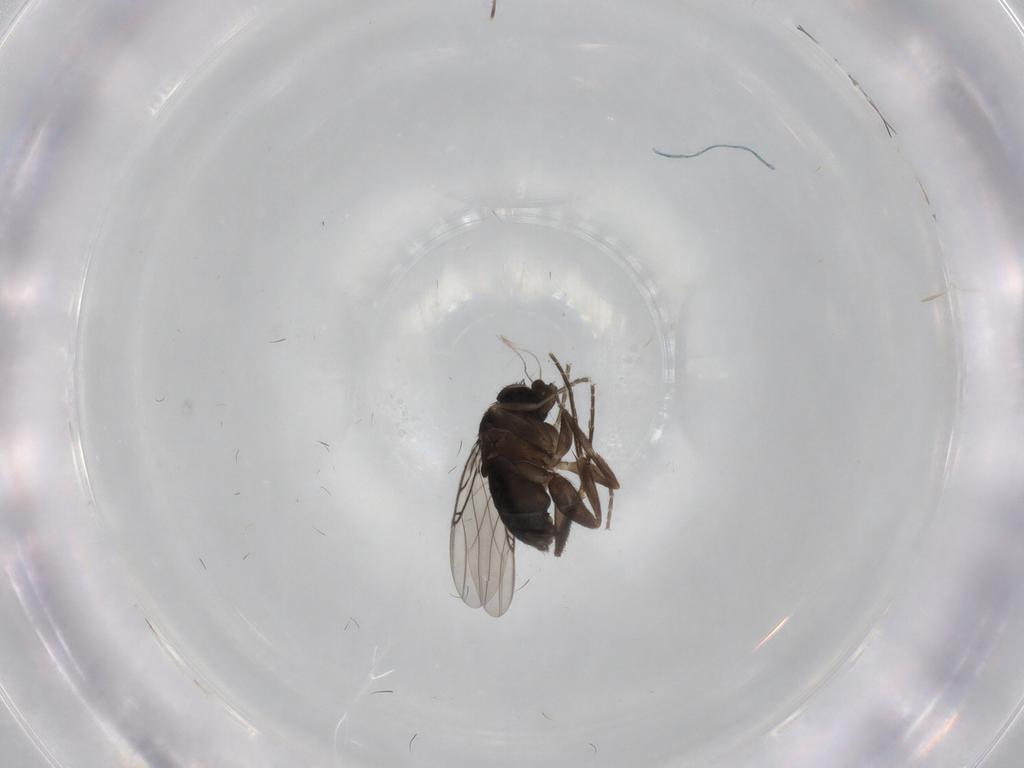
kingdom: Animalia
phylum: Arthropoda
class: Insecta
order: Diptera
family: Phoridae
